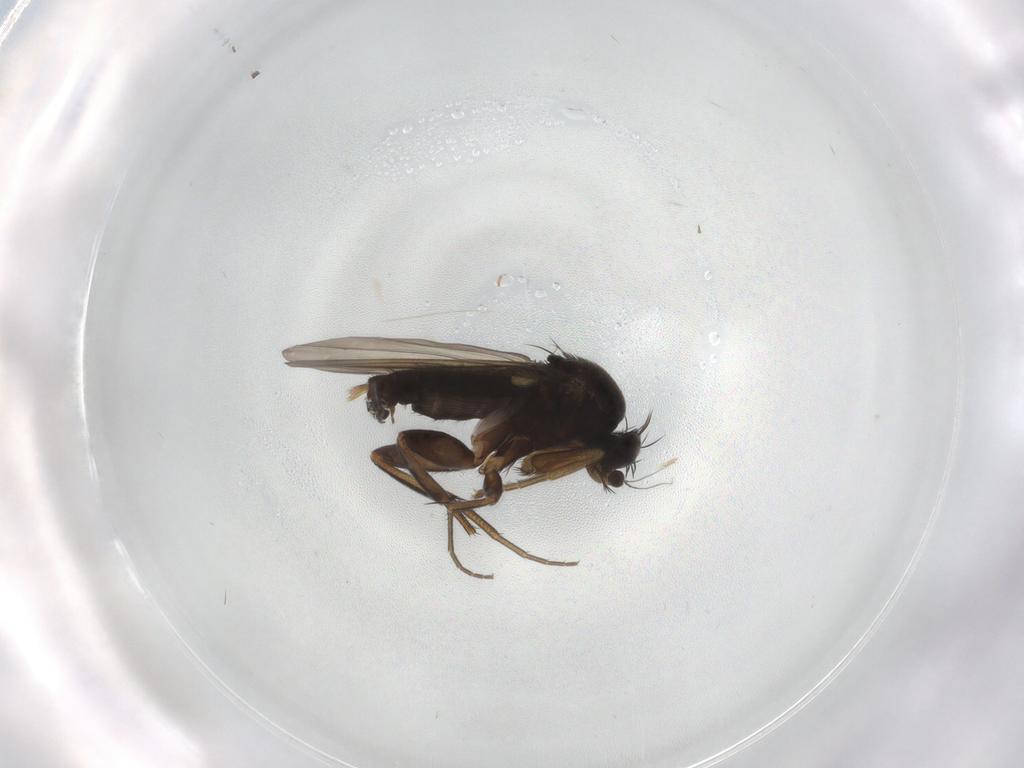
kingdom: Animalia
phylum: Arthropoda
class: Insecta
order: Diptera
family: Phoridae
